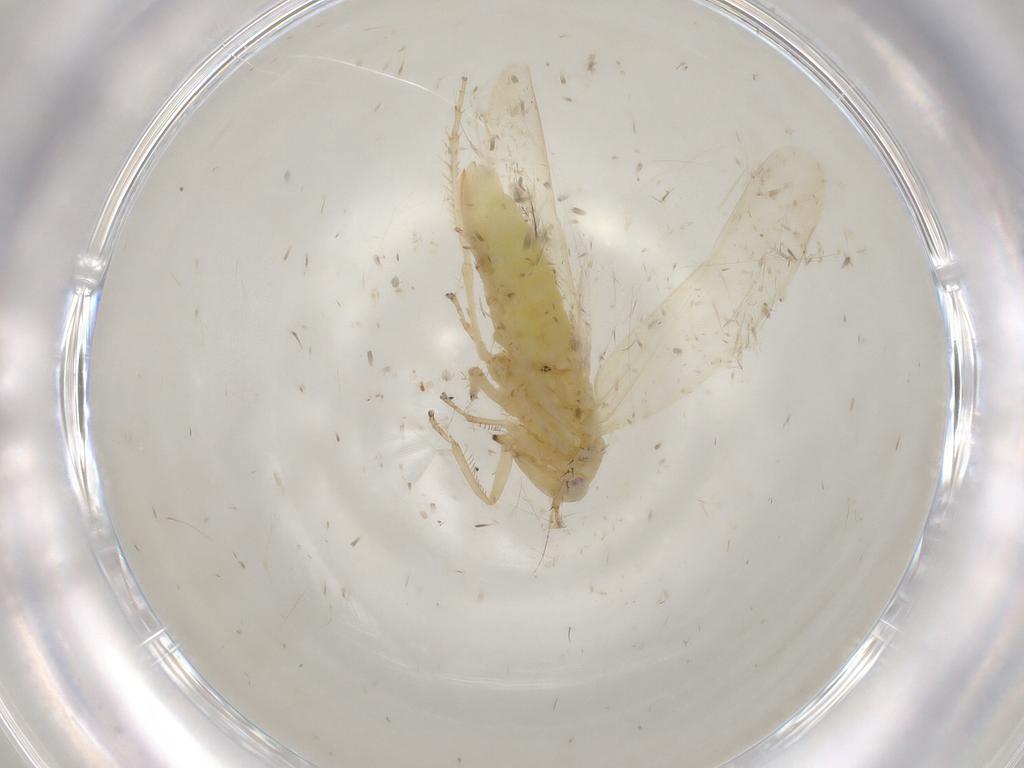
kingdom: Animalia
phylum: Arthropoda
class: Insecta
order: Hemiptera
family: Cicadellidae
